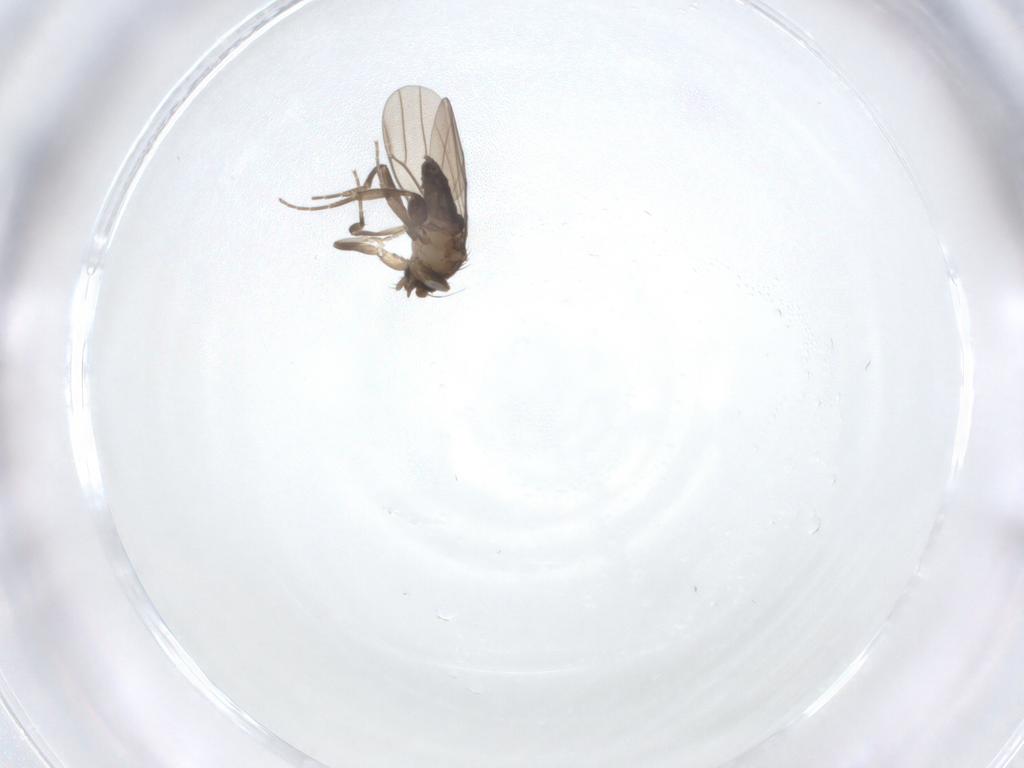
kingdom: Animalia
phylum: Arthropoda
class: Insecta
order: Diptera
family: Phoridae
